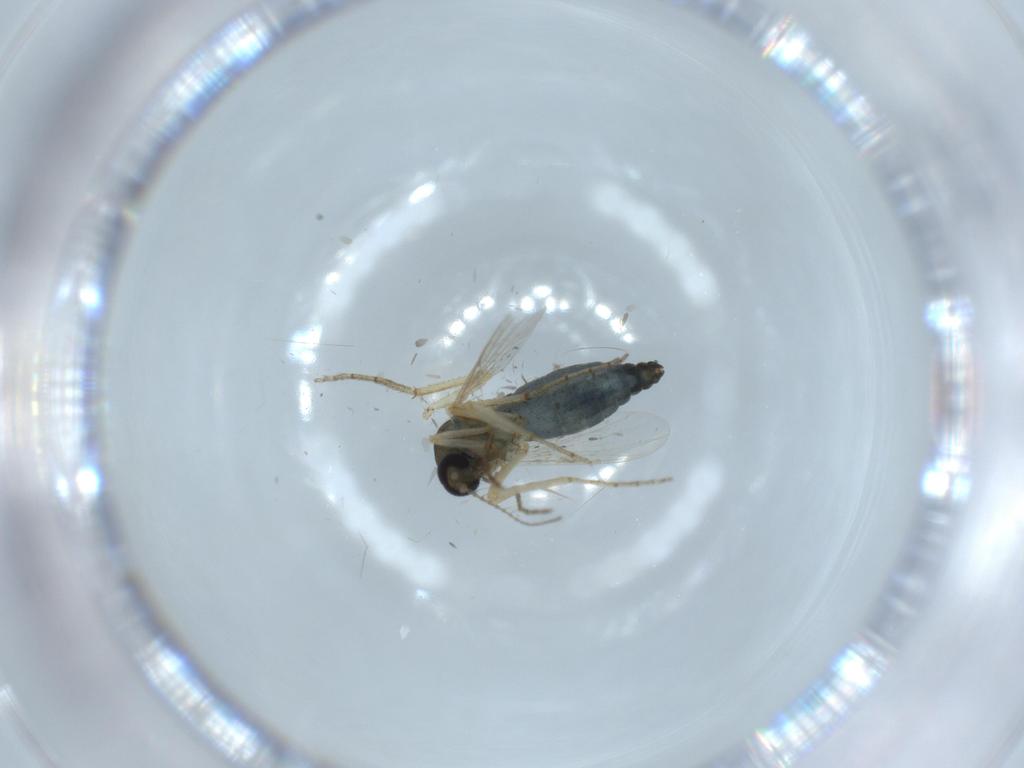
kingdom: Animalia
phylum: Arthropoda
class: Insecta
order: Diptera
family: Ceratopogonidae
